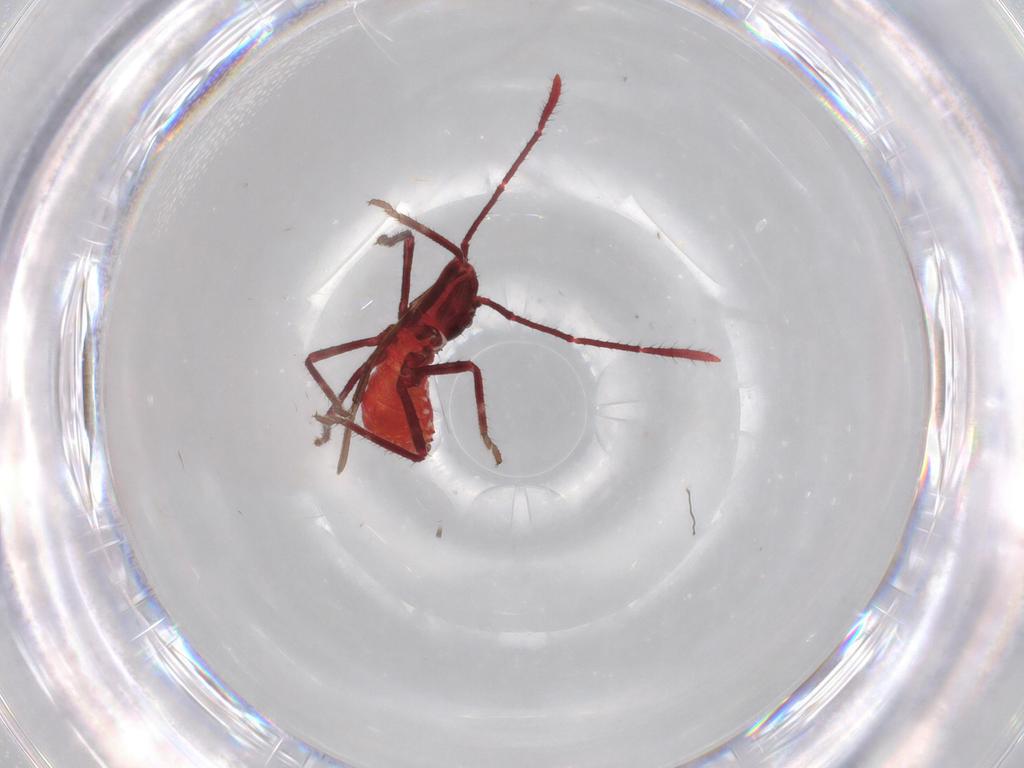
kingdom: Animalia
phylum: Arthropoda
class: Insecta
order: Hemiptera
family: Coreidae
